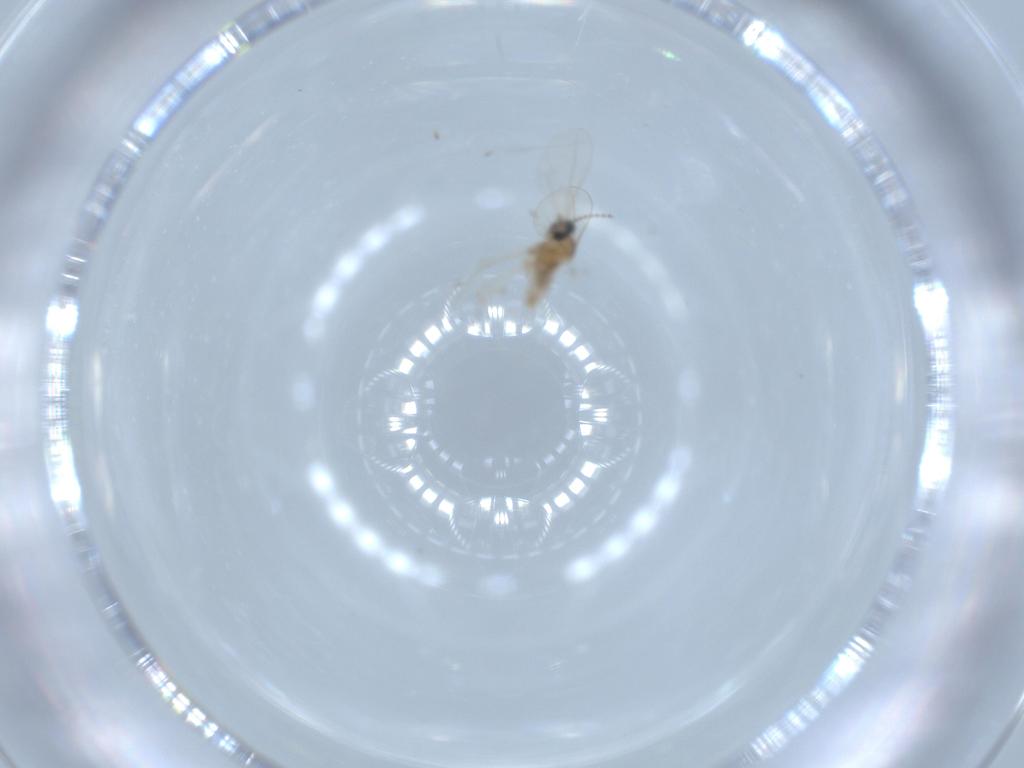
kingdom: Animalia
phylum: Arthropoda
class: Insecta
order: Diptera
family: Cecidomyiidae
